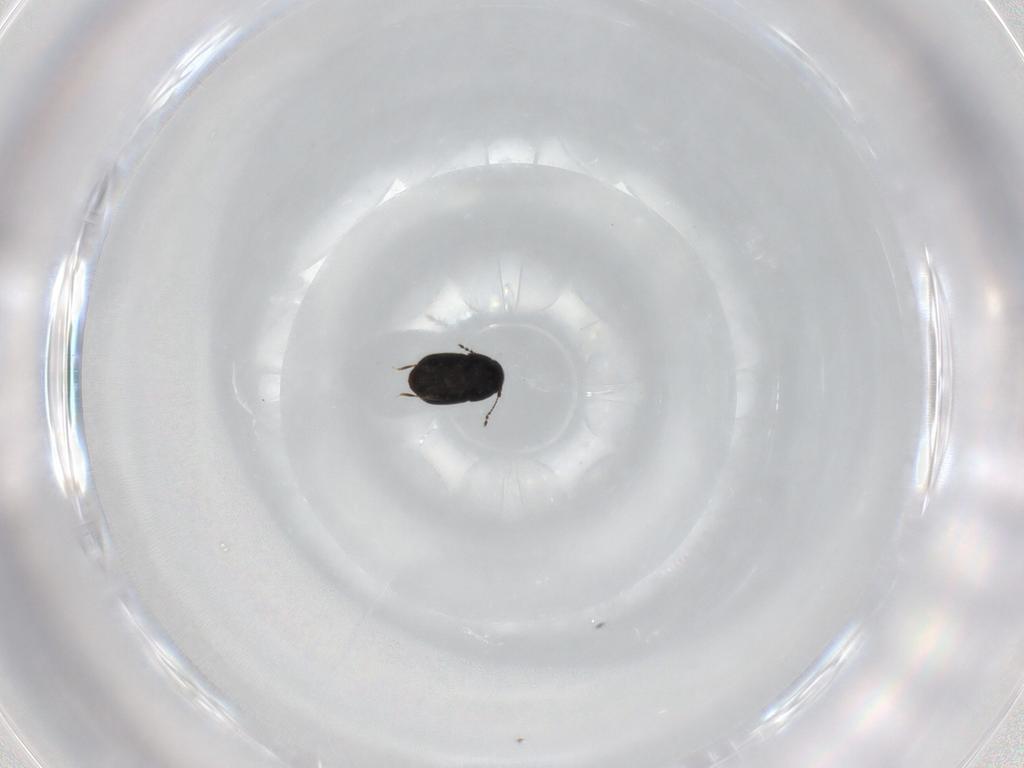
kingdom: Animalia
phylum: Arthropoda
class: Insecta
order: Coleoptera
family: Ptiliidae
